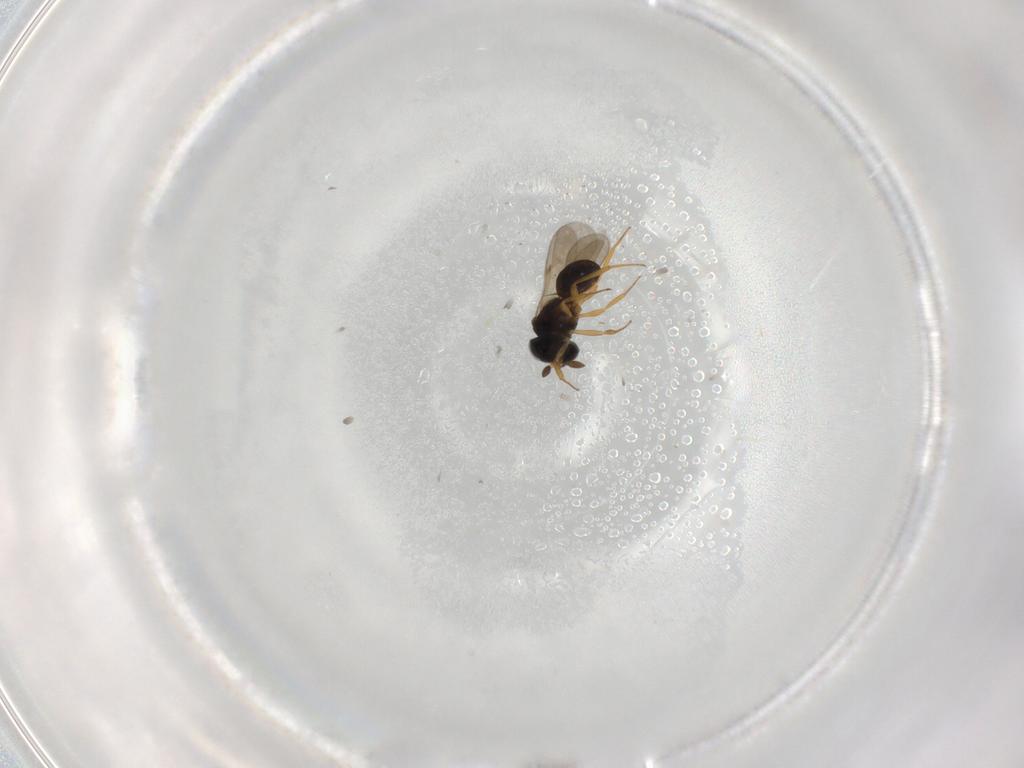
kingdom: Animalia
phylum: Arthropoda
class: Insecta
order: Hymenoptera
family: Scelionidae
